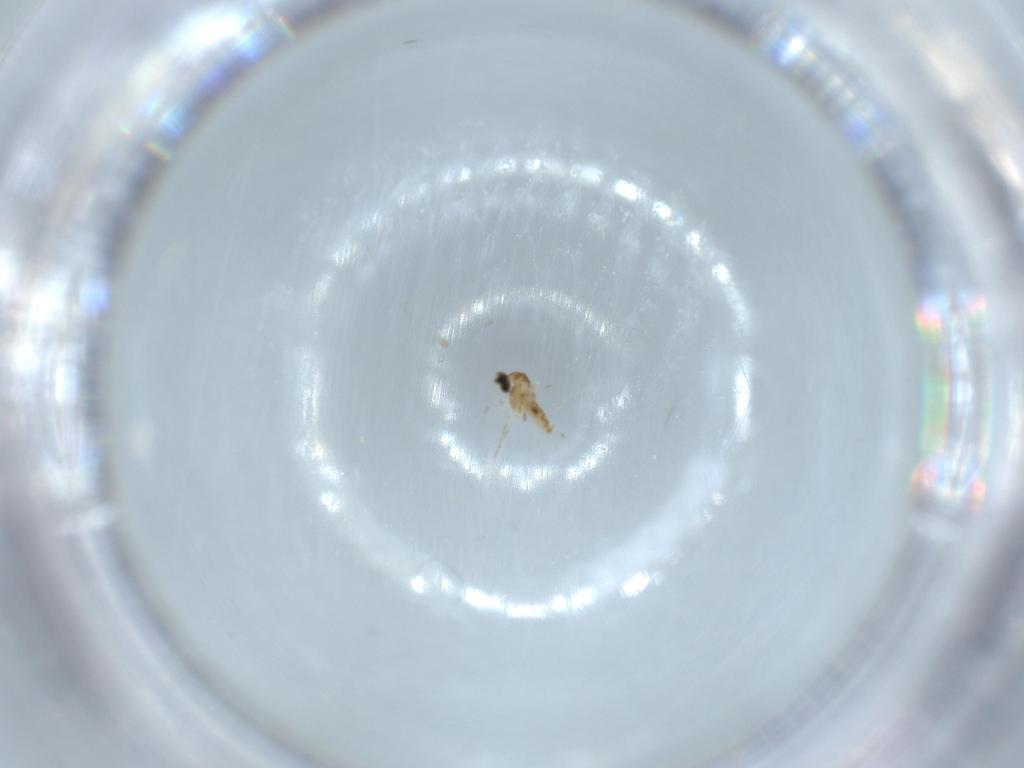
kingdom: Animalia
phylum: Arthropoda
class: Insecta
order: Diptera
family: Cecidomyiidae
